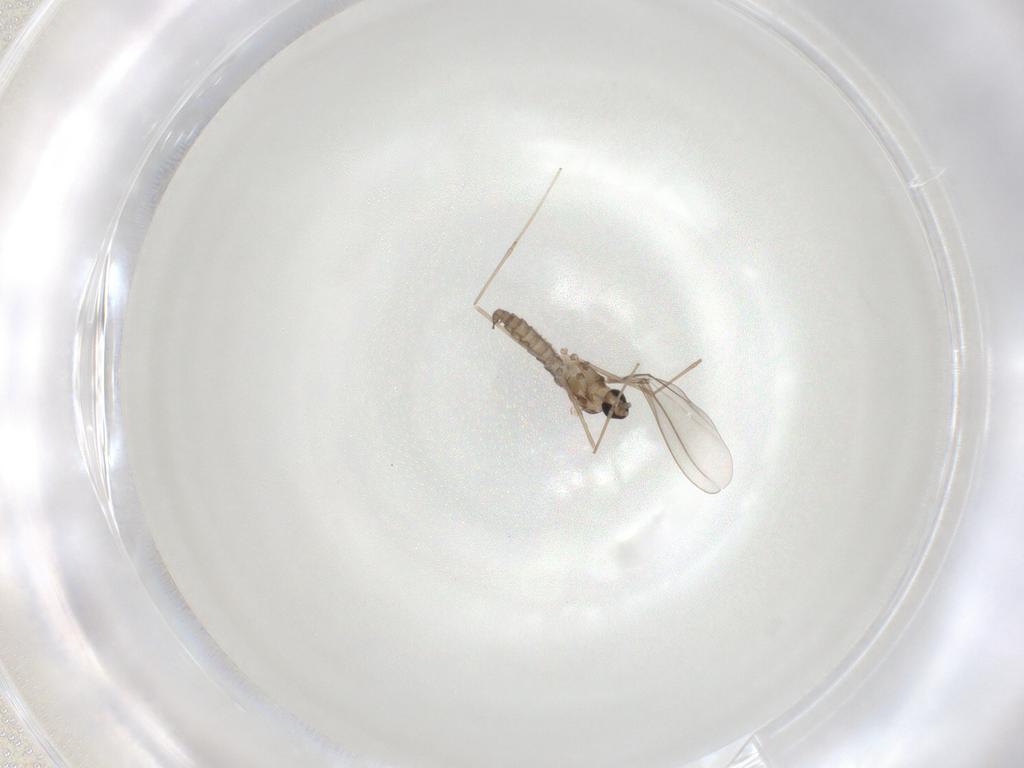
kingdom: Animalia
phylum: Arthropoda
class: Insecta
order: Diptera
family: Cecidomyiidae
